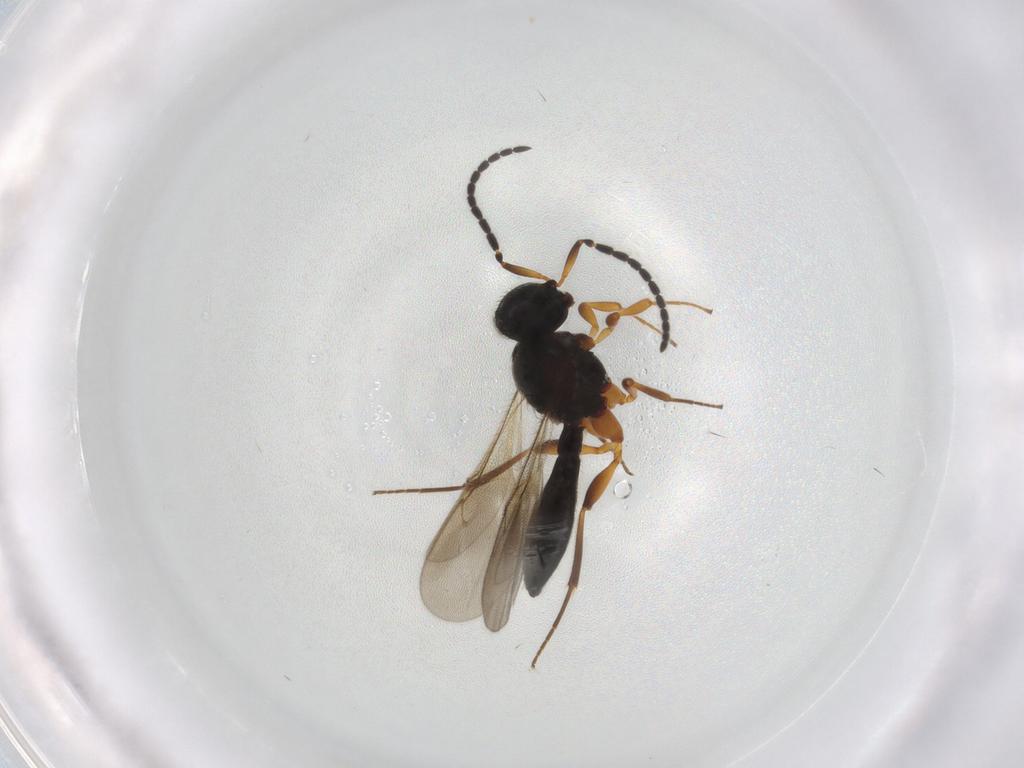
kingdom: Animalia
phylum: Arthropoda
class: Insecta
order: Hymenoptera
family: Scelionidae
